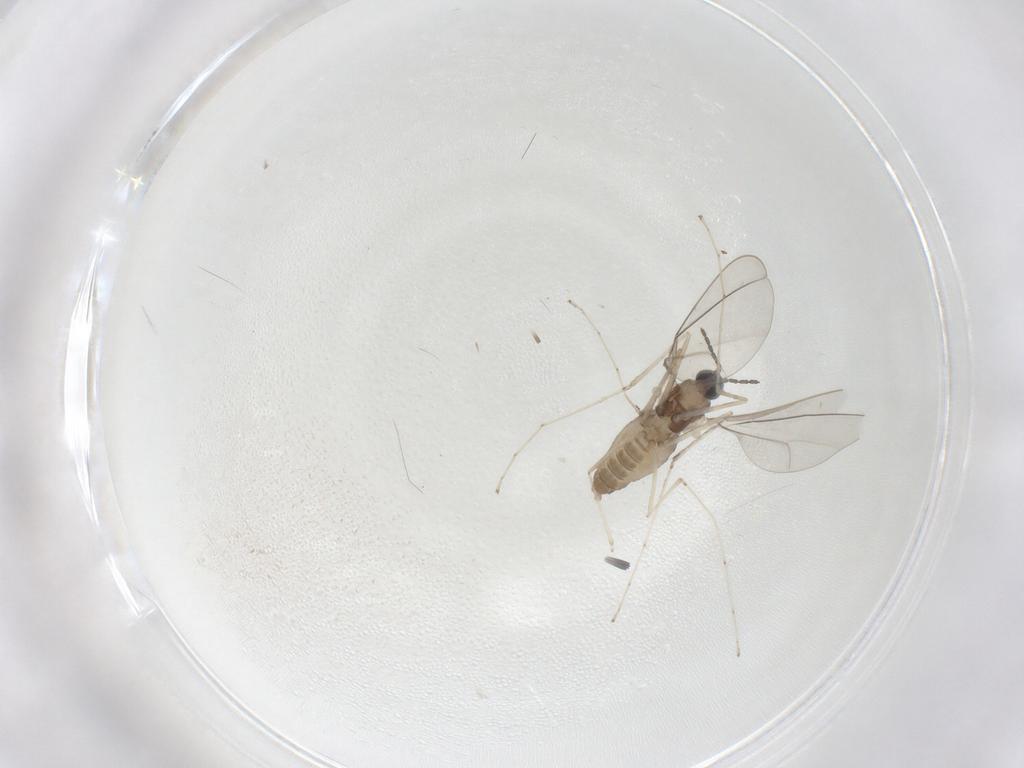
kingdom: Animalia
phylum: Arthropoda
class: Insecta
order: Diptera
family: Cecidomyiidae
